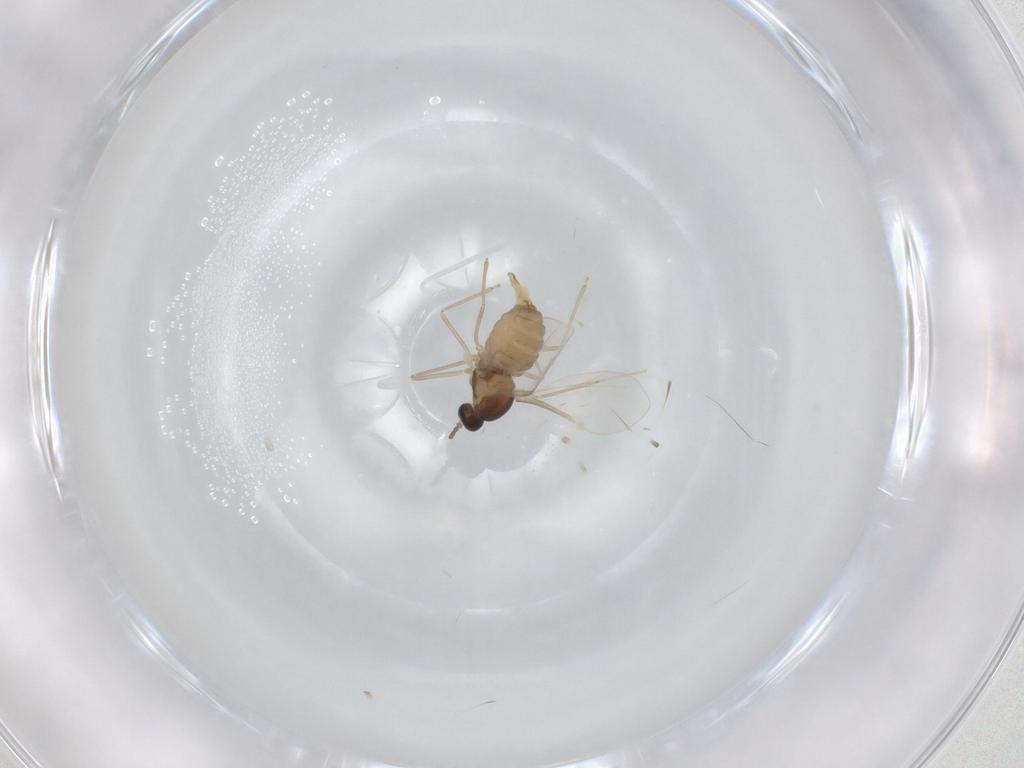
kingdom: Animalia
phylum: Arthropoda
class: Insecta
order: Diptera
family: Cecidomyiidae
